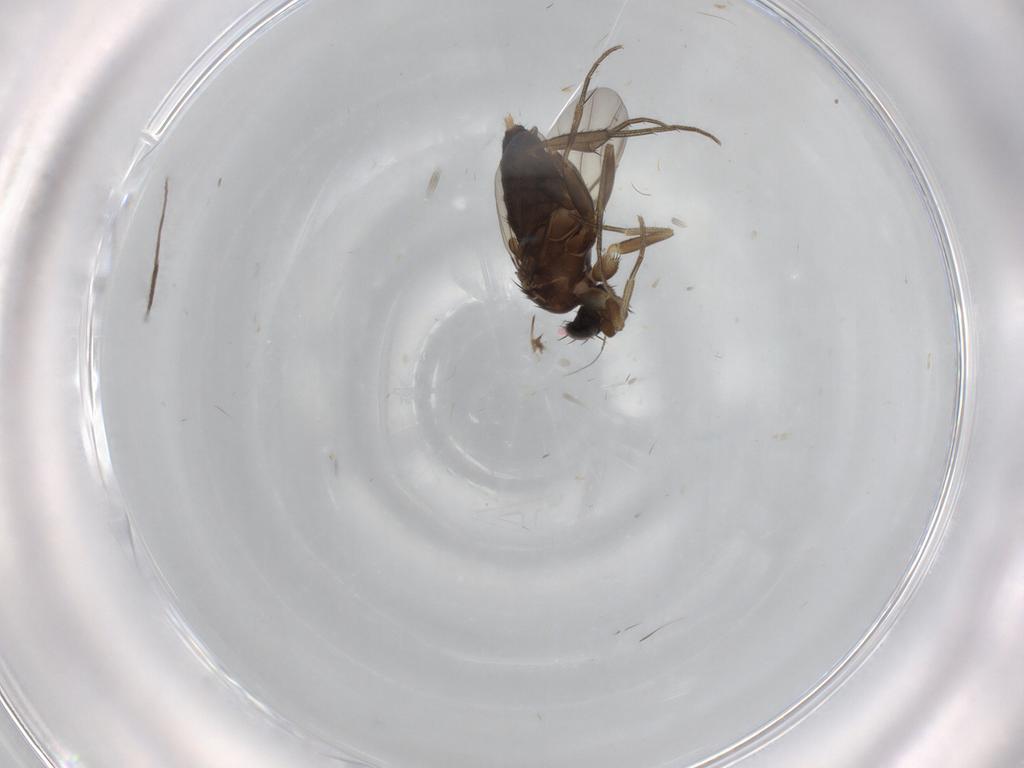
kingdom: Animalia
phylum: Arthropoda
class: Insecta
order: Diptera
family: Phoridae
